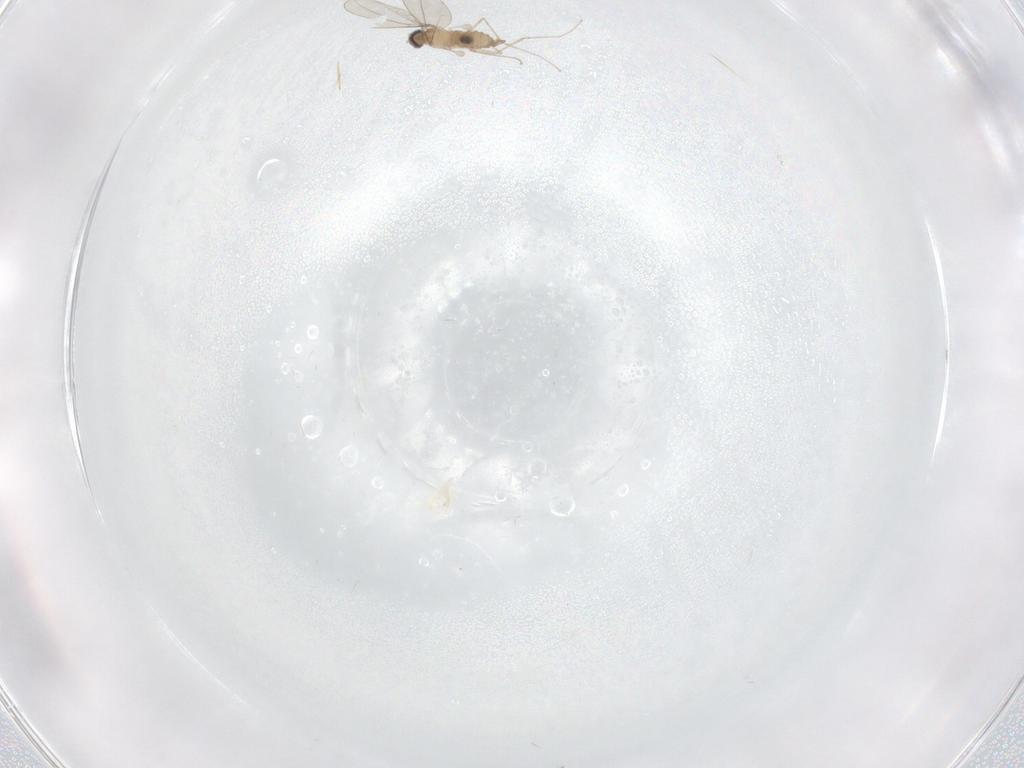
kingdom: Animalia
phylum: Arthropoda
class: Insecta
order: Diptera
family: Cecidomyiidae
